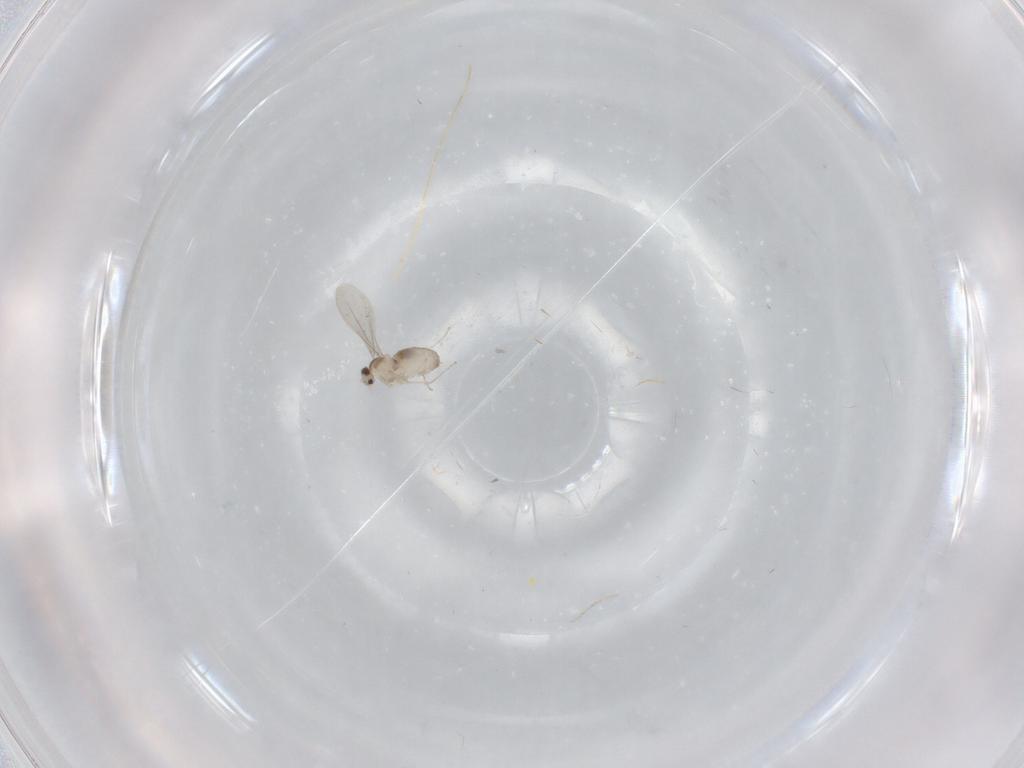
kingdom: Animalia
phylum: Arthropoda
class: Insecta
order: Diptera
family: Cecidomyiidae
